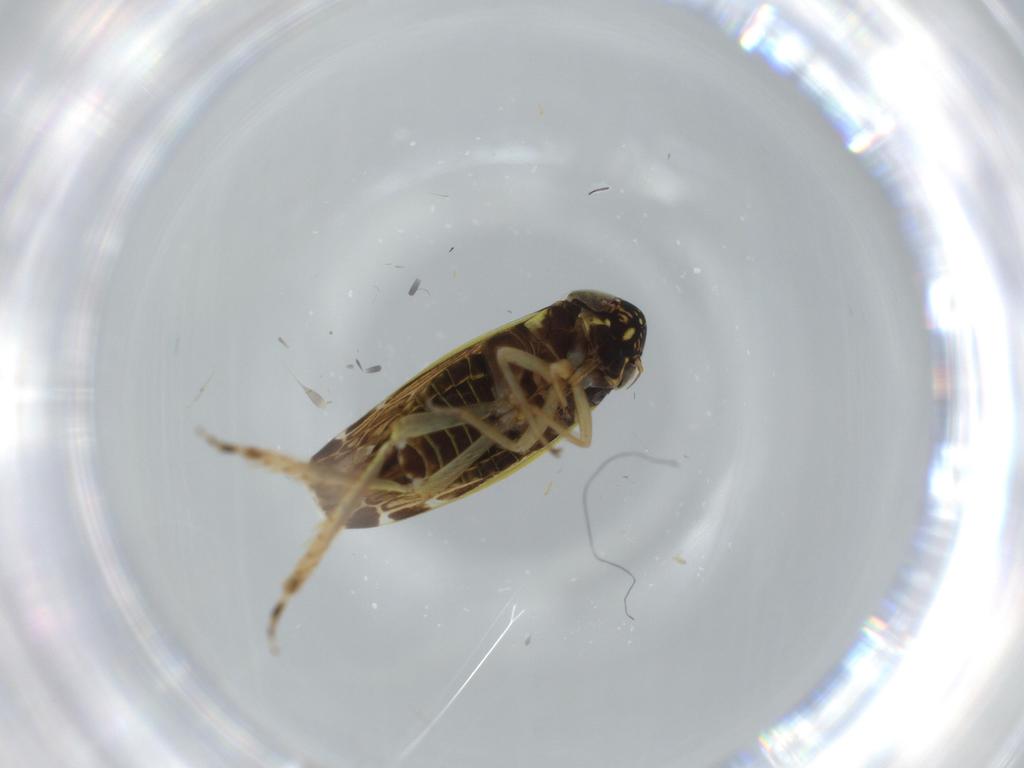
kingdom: Animalia
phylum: Arthropoda
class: Insecta
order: Hemiptera
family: Cicadellidae
